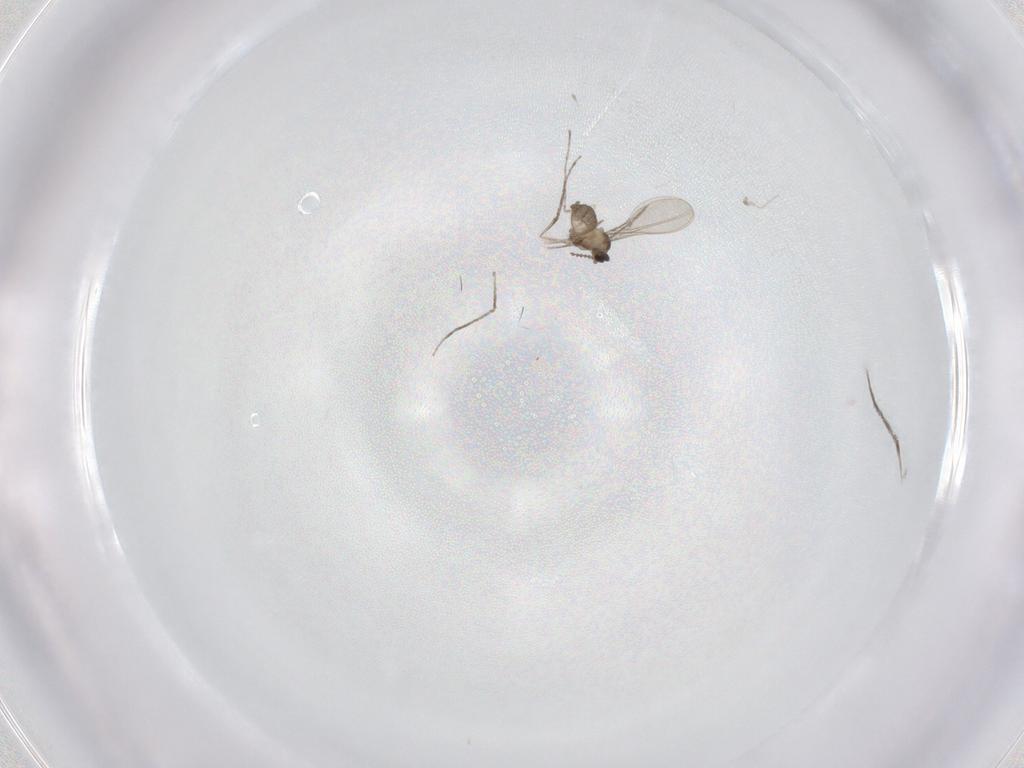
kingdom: Animalia
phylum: Arthropoda
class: Insecta
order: Diptera
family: Cecidomyiidae
